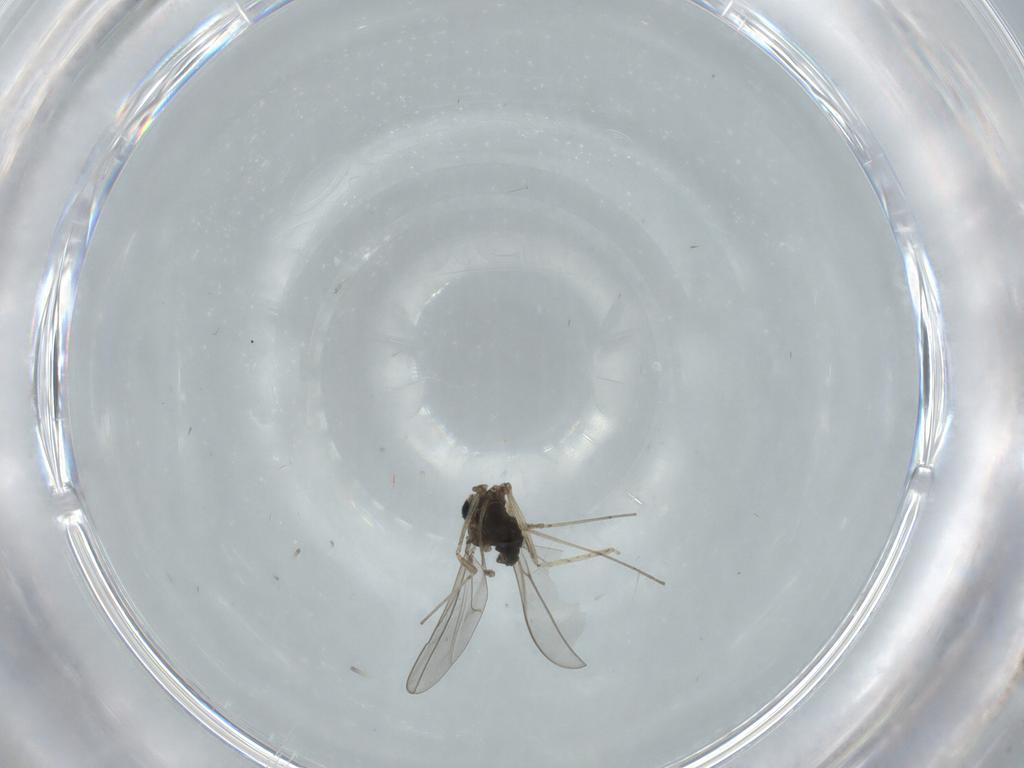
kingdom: Animalia
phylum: Arthropoda
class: Insecta
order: Diptera
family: Cecidomyiidae
